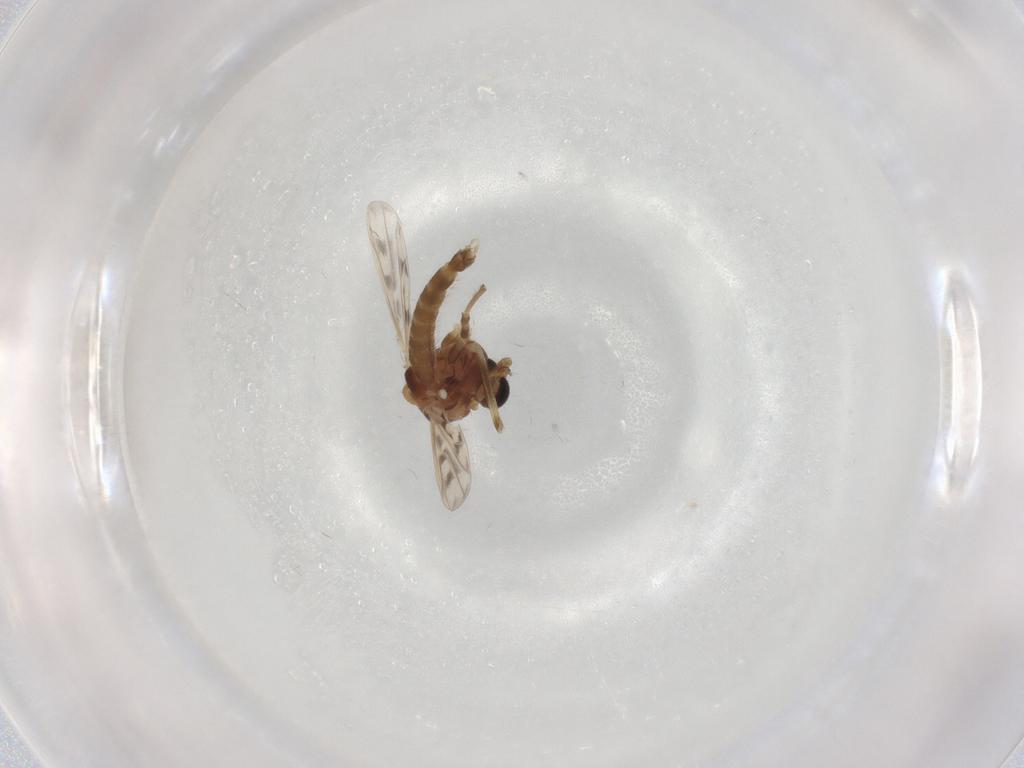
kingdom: Animalia
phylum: Arthropoda
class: Insecta
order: Diptera
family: Chironomidae
